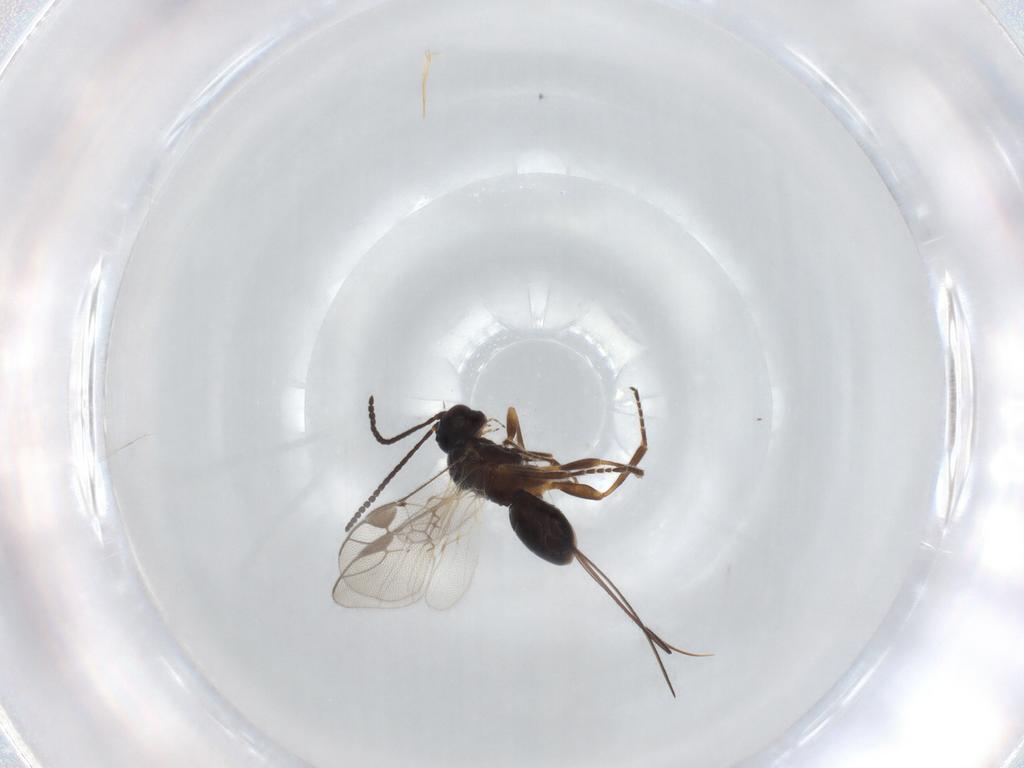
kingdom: Animalia
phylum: Arthropoda
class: Insecta
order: Hymenoptera
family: Braconidae
